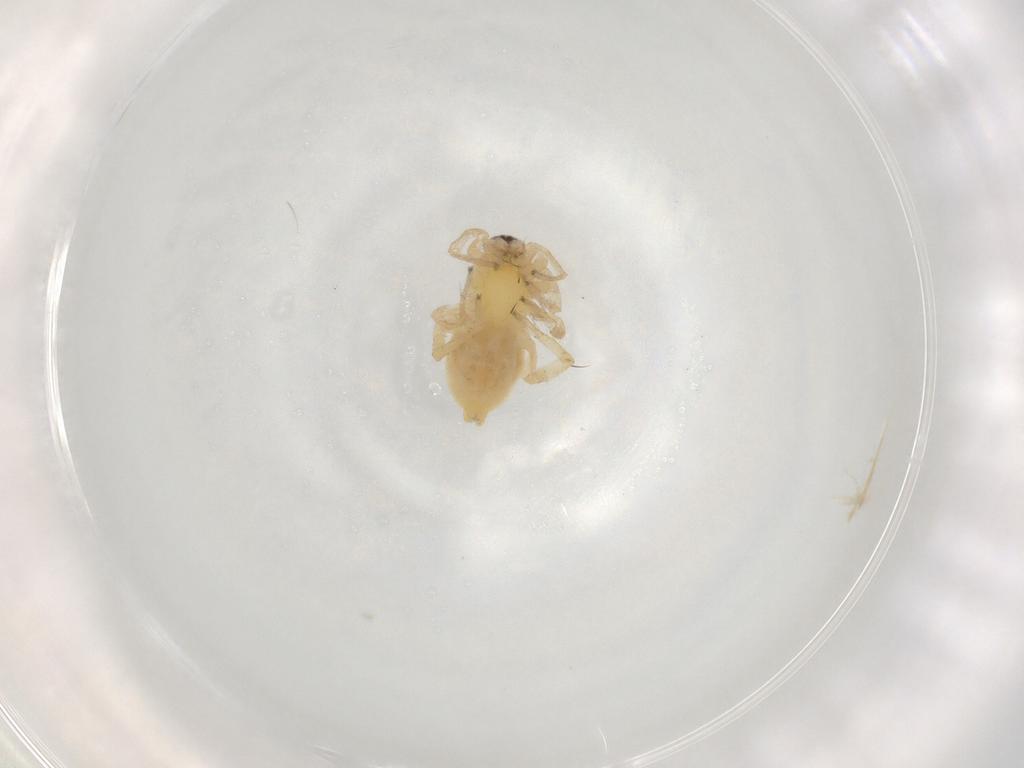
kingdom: Animalia
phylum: Arthropoda
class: Arachnida
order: Araneae
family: Clubionidae
